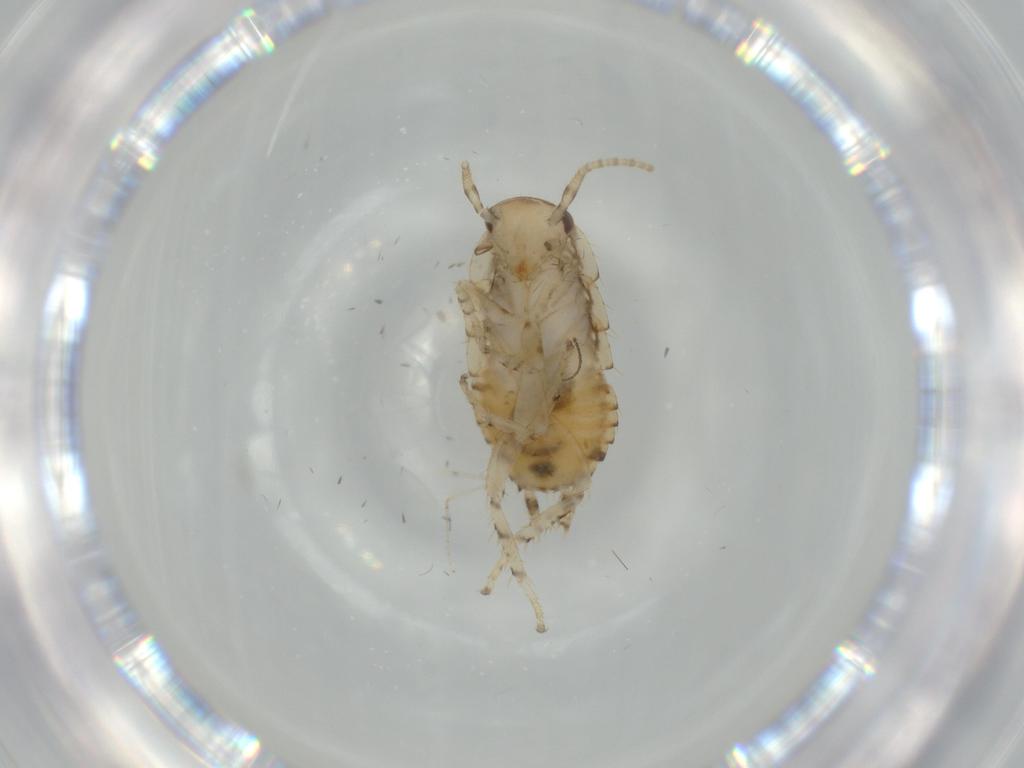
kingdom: Animalia
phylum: Arthropoda
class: Insecta
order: Blattodea
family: Ectobiidae
